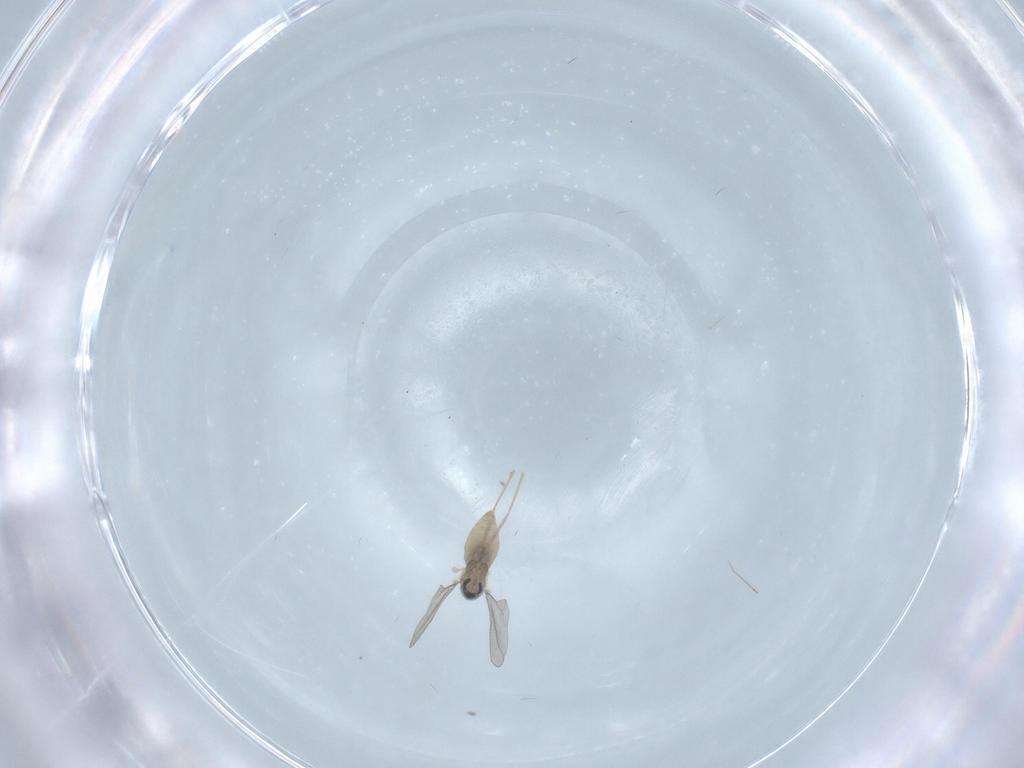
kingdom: Animalia
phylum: Arthropoda
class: Insecta
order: Diptera
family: Cecidomyiidae
